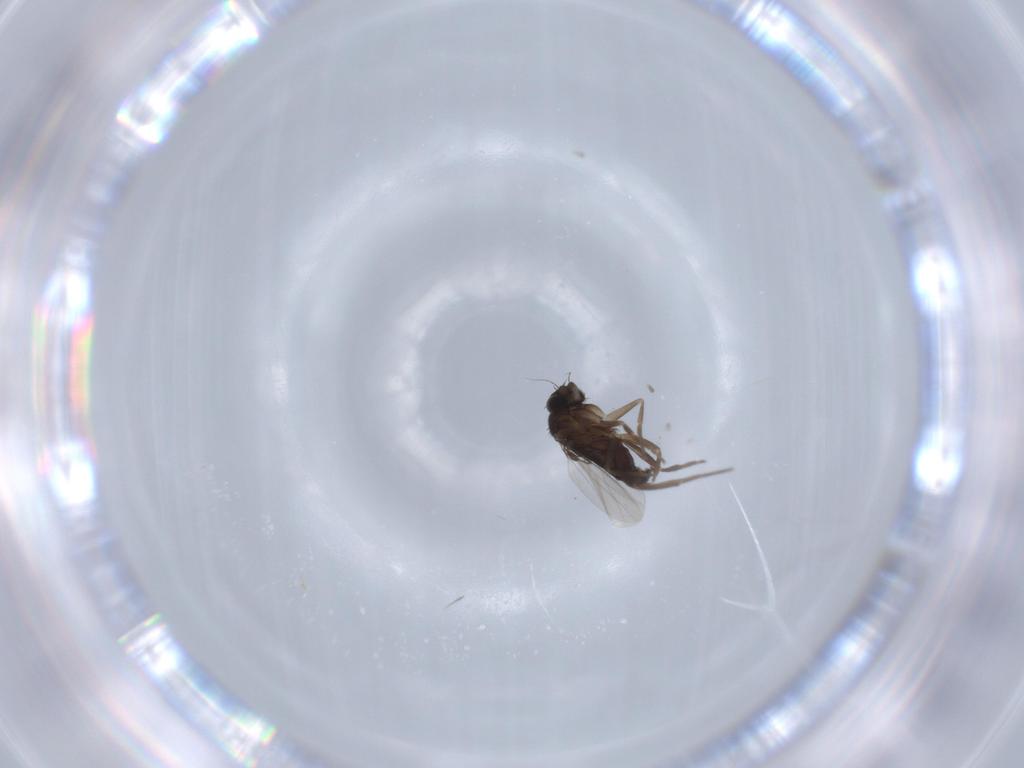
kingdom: Animalia
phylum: Arthropoda
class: Insecta
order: Diptera
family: Phoridae
